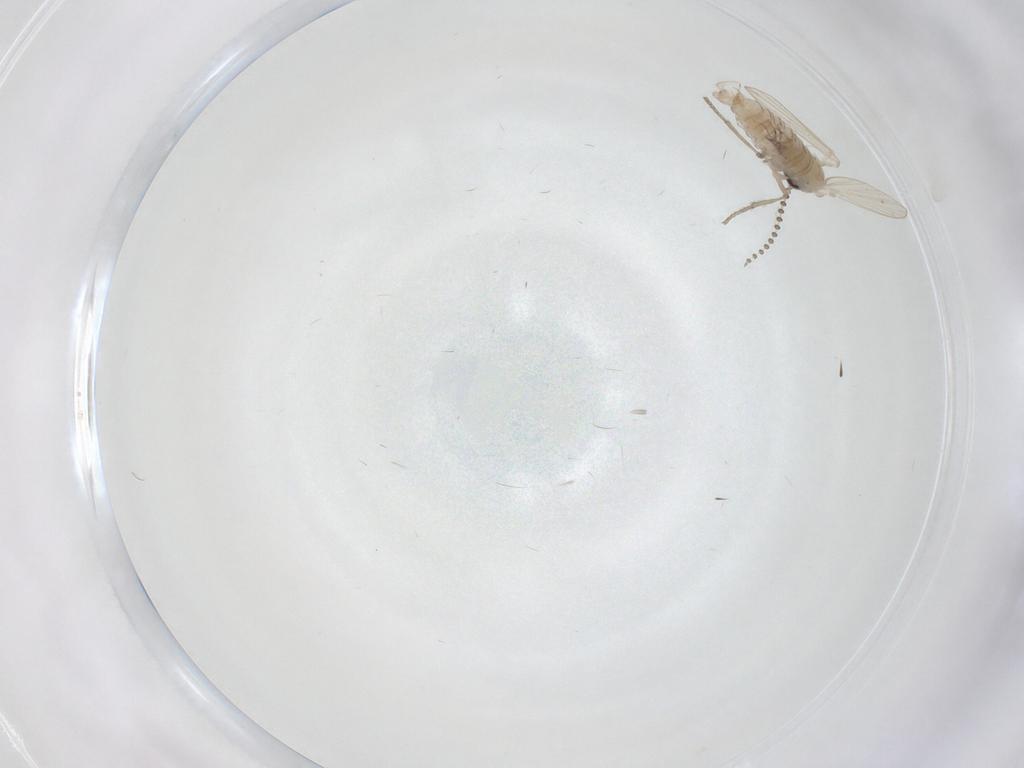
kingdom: Animalia
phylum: Arthropoda
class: Insecta
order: Diptera
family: Psychodidae
